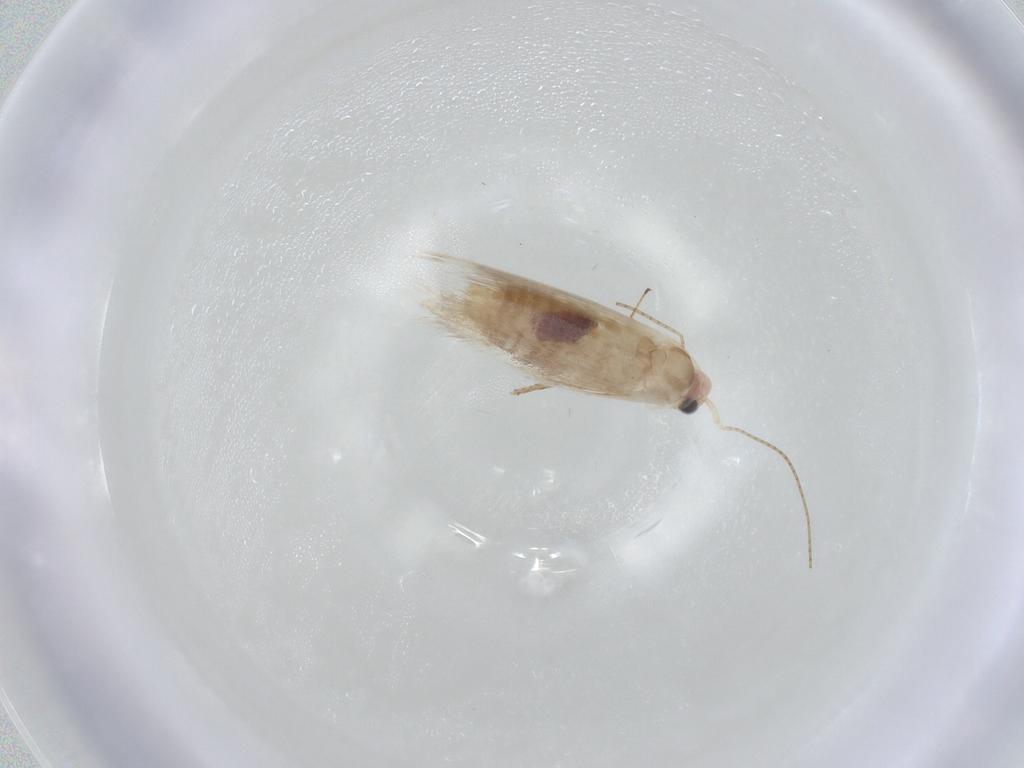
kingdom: Animalia
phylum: Arthropoda
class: Insecta
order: Lepidoptera
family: Bucculatricidae
